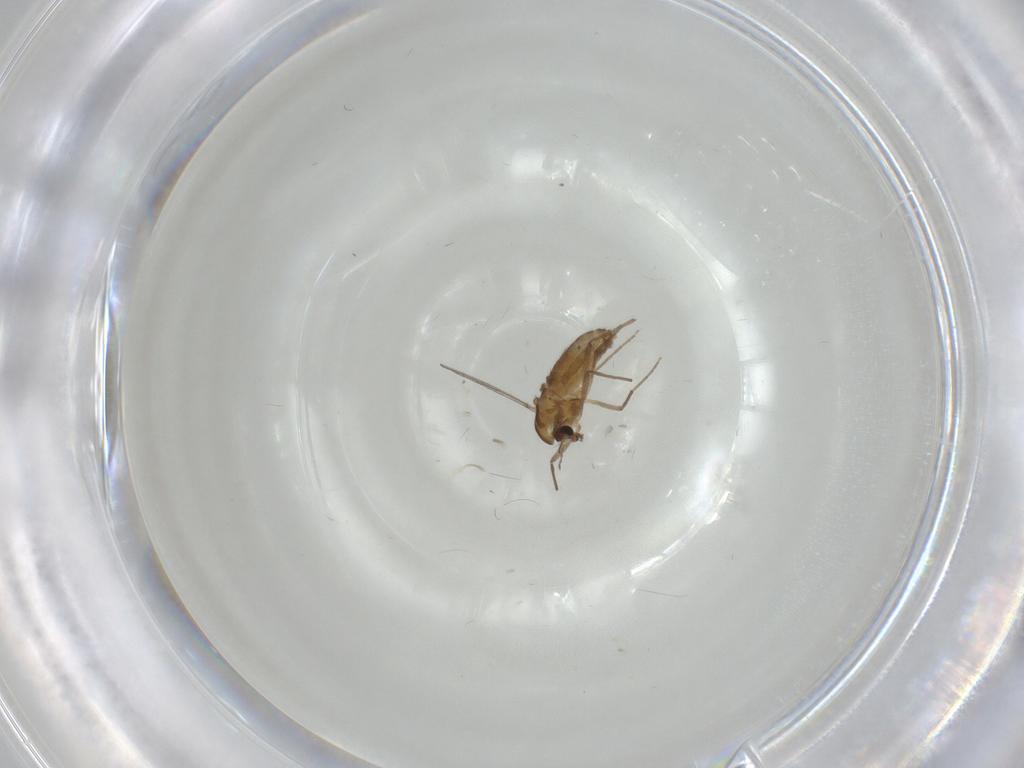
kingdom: Animalia
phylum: Arthropoda
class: Insecta
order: Diptera
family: Chironomidae
